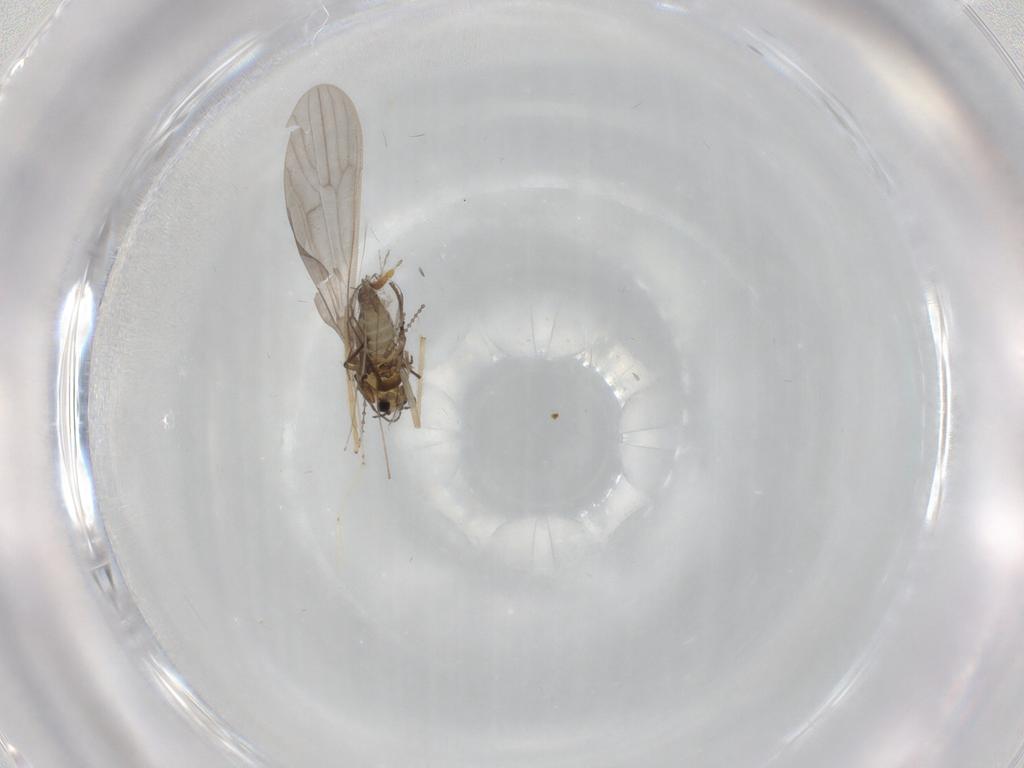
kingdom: Animalia
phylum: Arthropoda
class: Insecta
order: Diptera
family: Chironomidae
